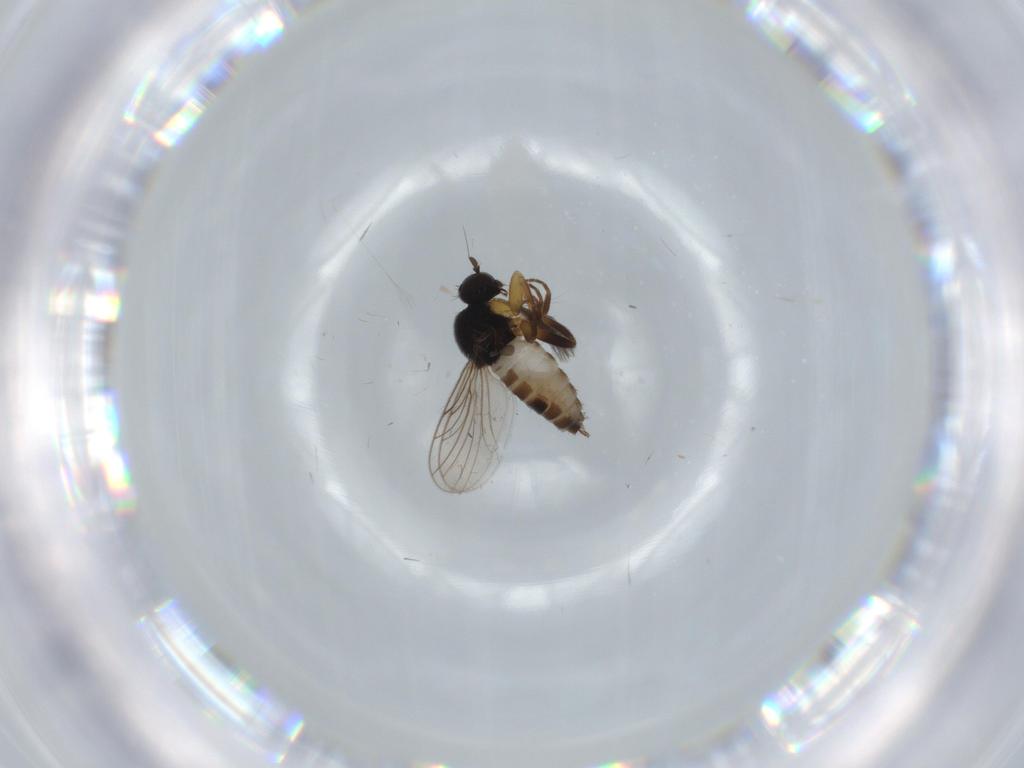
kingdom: Animalia
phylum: Arthropoda
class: Insecta
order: Diptera
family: Hybotidae
